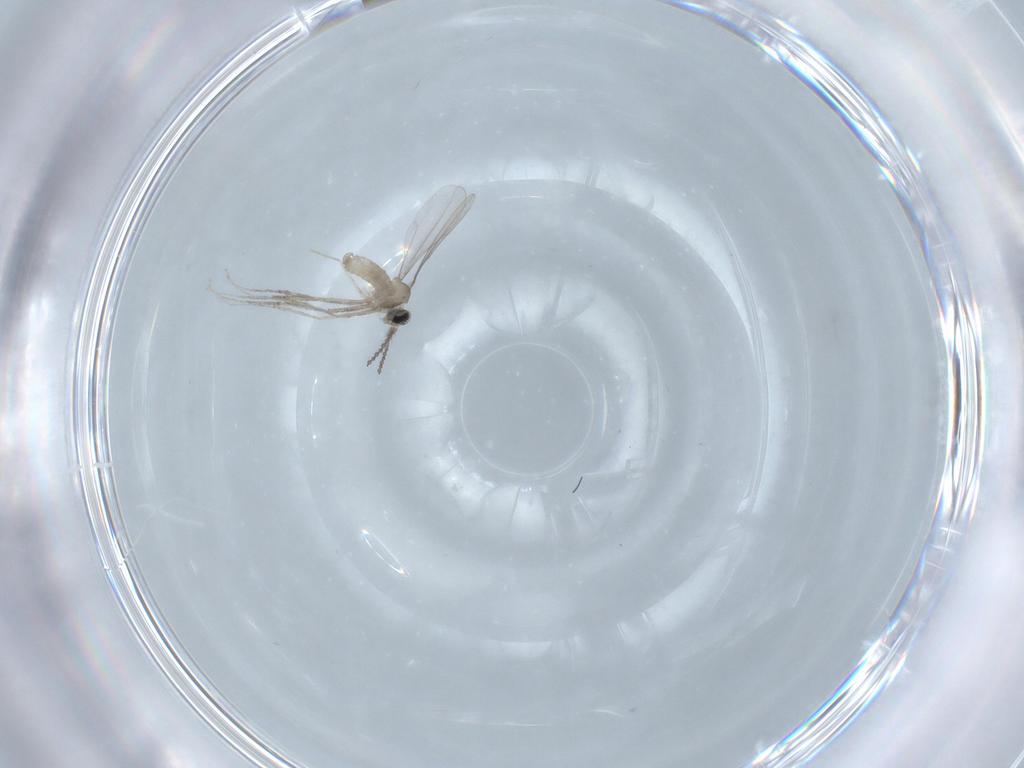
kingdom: Animalia
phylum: Arthropoda
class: Insecta
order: Diptera
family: Cecidomyiidae
